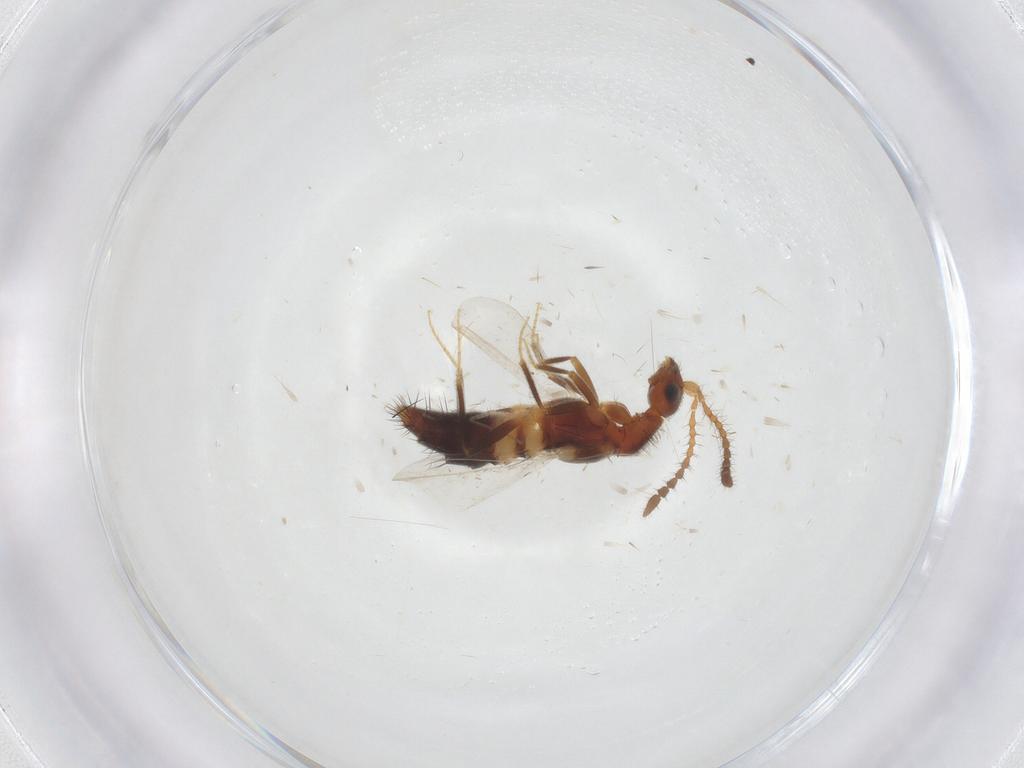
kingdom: Animalia
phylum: Arthropoda
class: Insecta
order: Coleoptera
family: Staphylinidae
